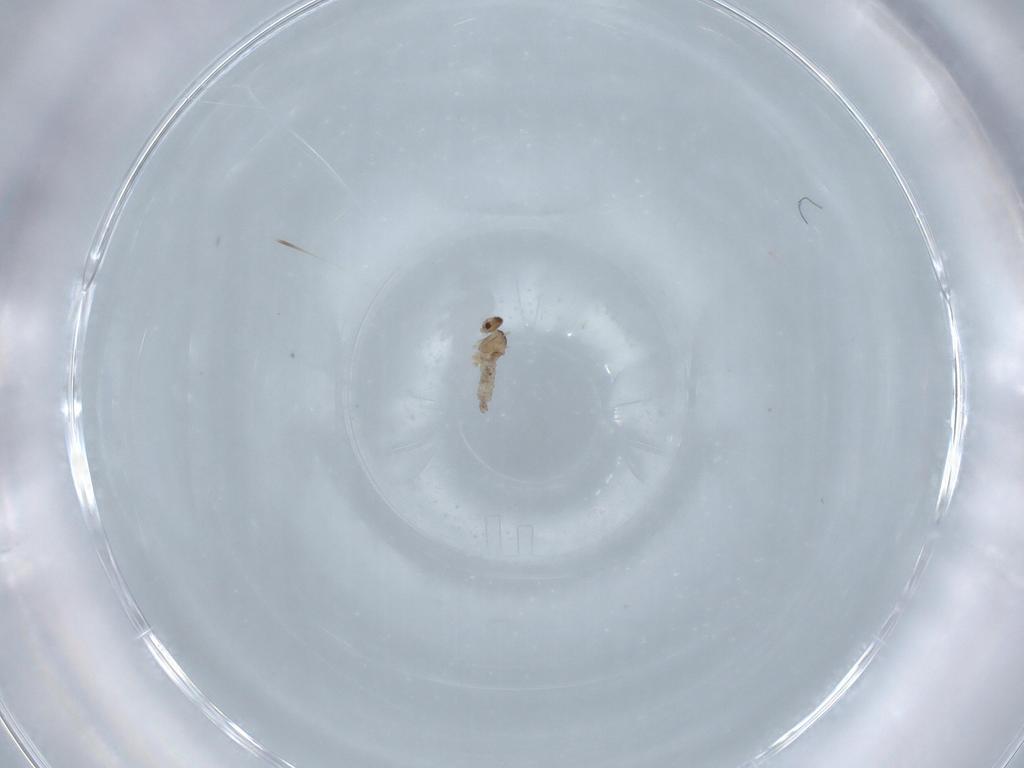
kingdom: Animalia
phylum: Arthropoda
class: Insecta
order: Diptera
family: Cecidomyiidae
